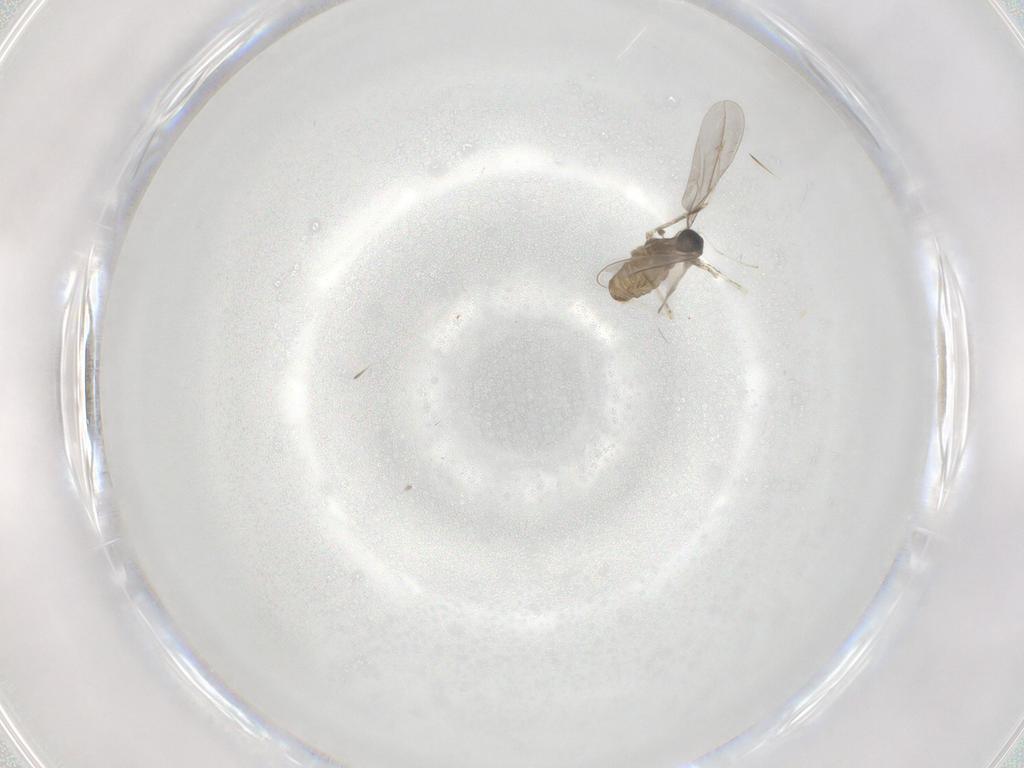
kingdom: Animalia
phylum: Arthropoda
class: Insecta
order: Diptera
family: Cecidomyiidae
